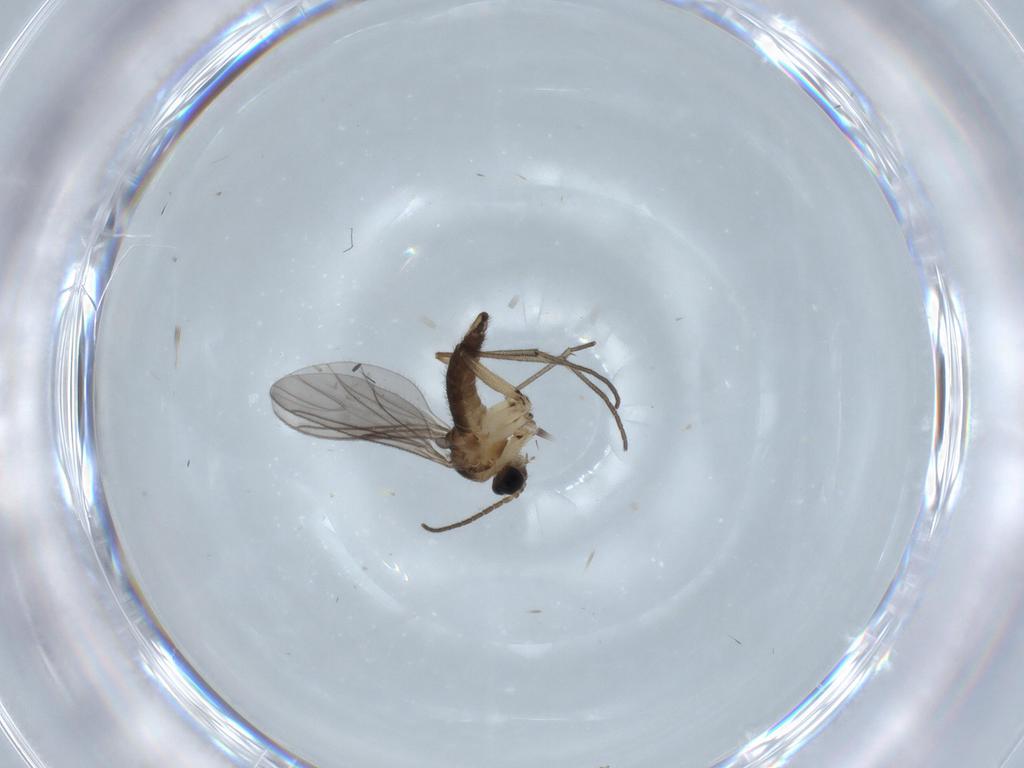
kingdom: Animalia
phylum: Arthropoda
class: Insecta
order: Diptera
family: Sciaridae
